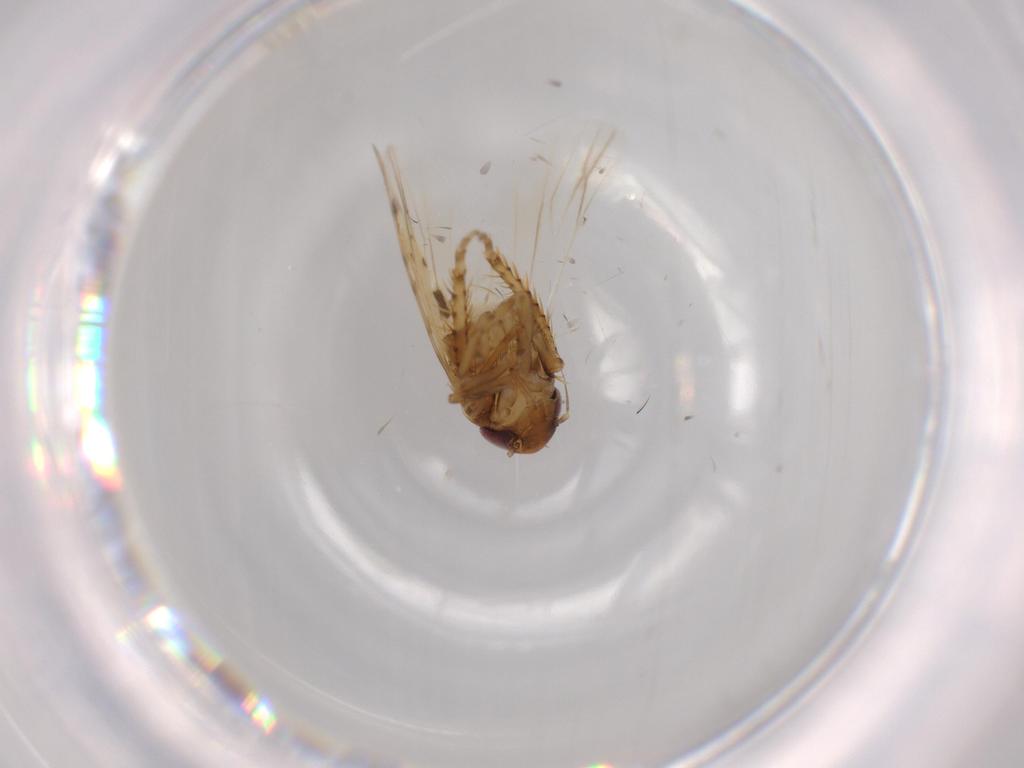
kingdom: Animalia
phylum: Arthropoda
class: Insecta
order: Hemiptera
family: Cicadellidae
